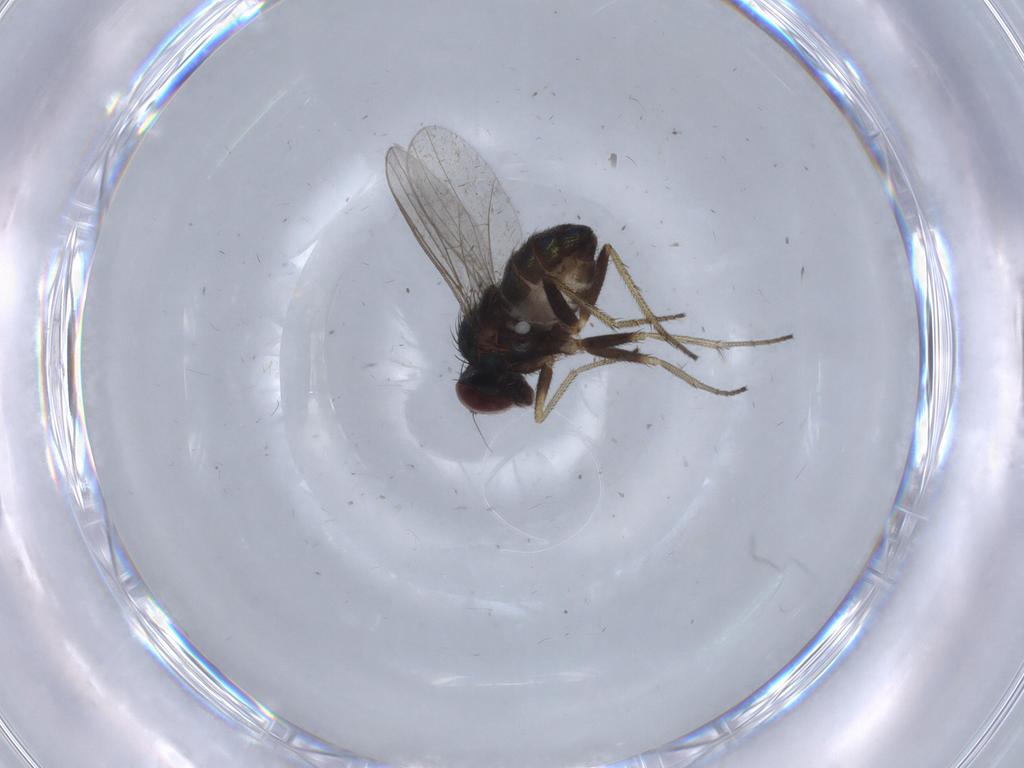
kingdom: Animalia
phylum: Arthropoda
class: Insecta
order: Diptera
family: Dolichopodidae
